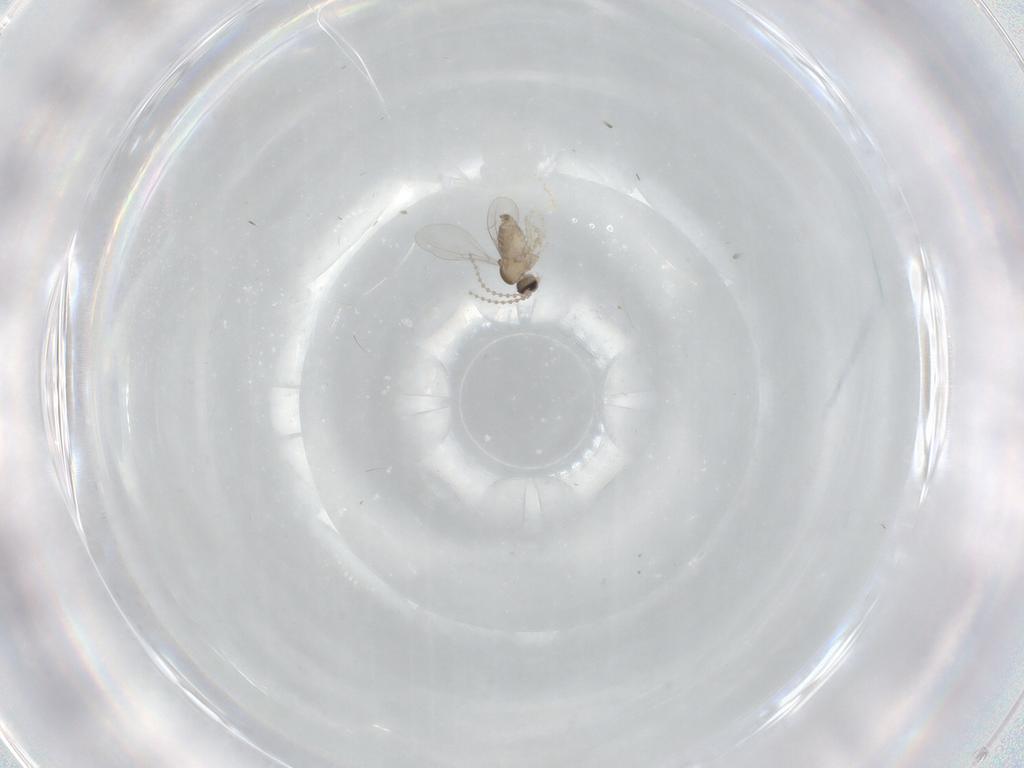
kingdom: Animalia
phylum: Arthropoda
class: Insecta
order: Diptera
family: Cecidomyiidae
